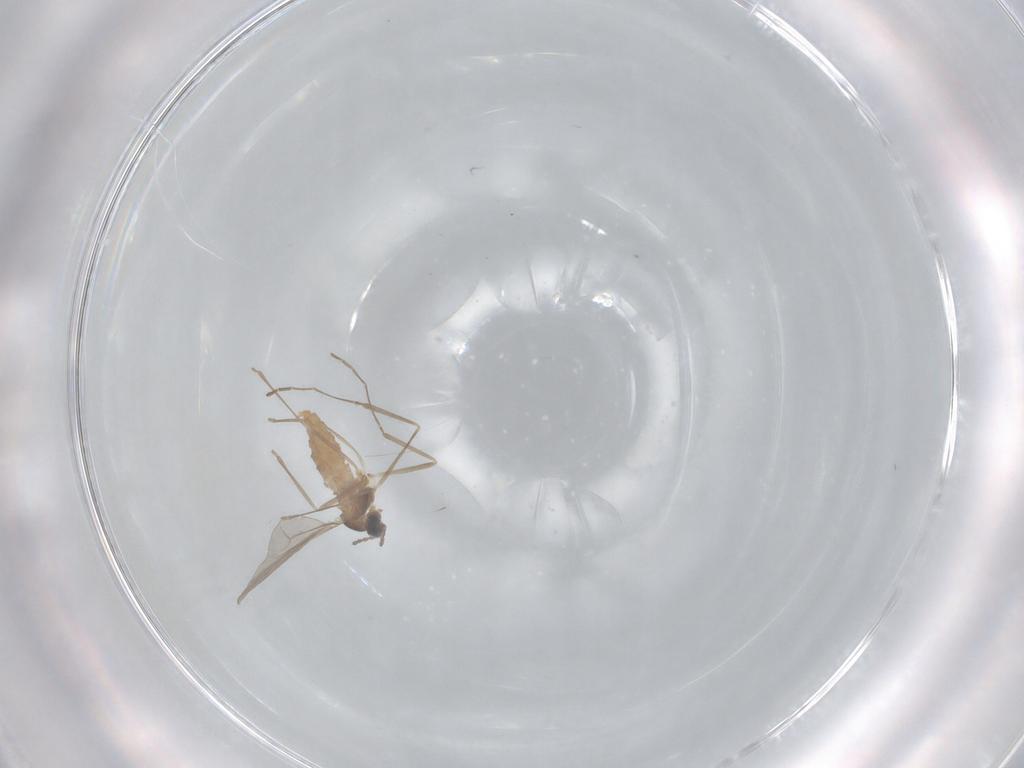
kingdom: Animalia
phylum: Arthropoda
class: Insecta
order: Diptera
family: Cecidomyiidae
